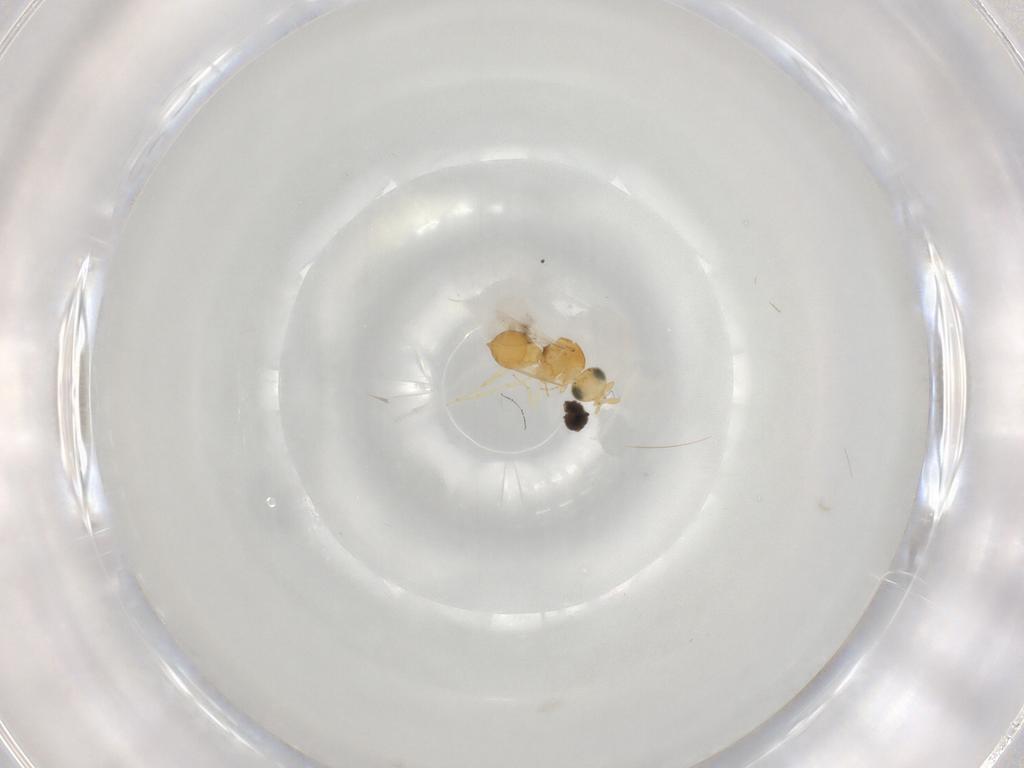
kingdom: Animalia
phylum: Arthropoda
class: Insecta
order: Hymenoptera
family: Scelionidae
